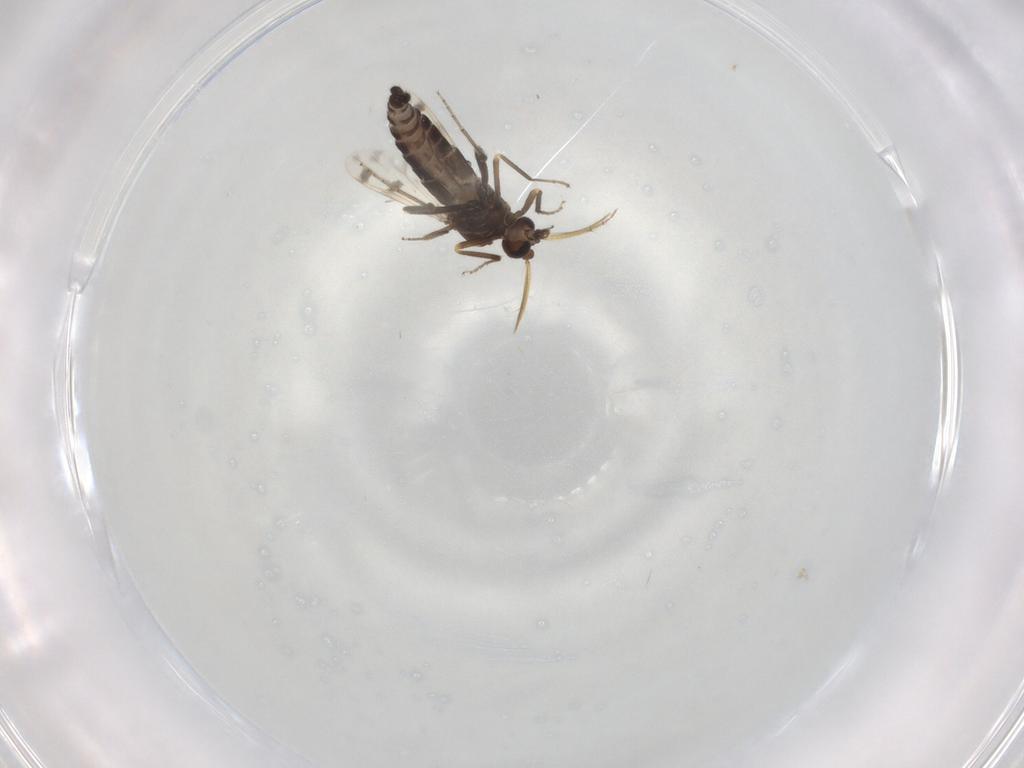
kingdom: Animalia
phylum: Arthropoda
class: Insecta
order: Diptera
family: Chironomidae
